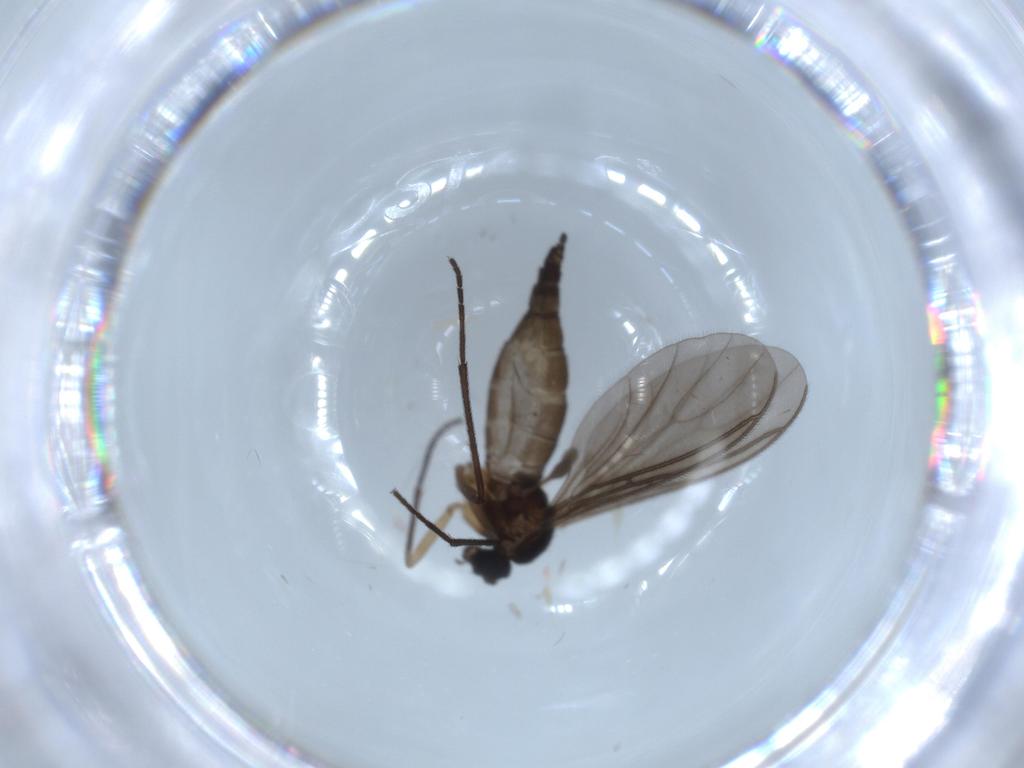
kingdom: Animalia
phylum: Arthropoda
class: Insecta
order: Diptera
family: Sciaridae
